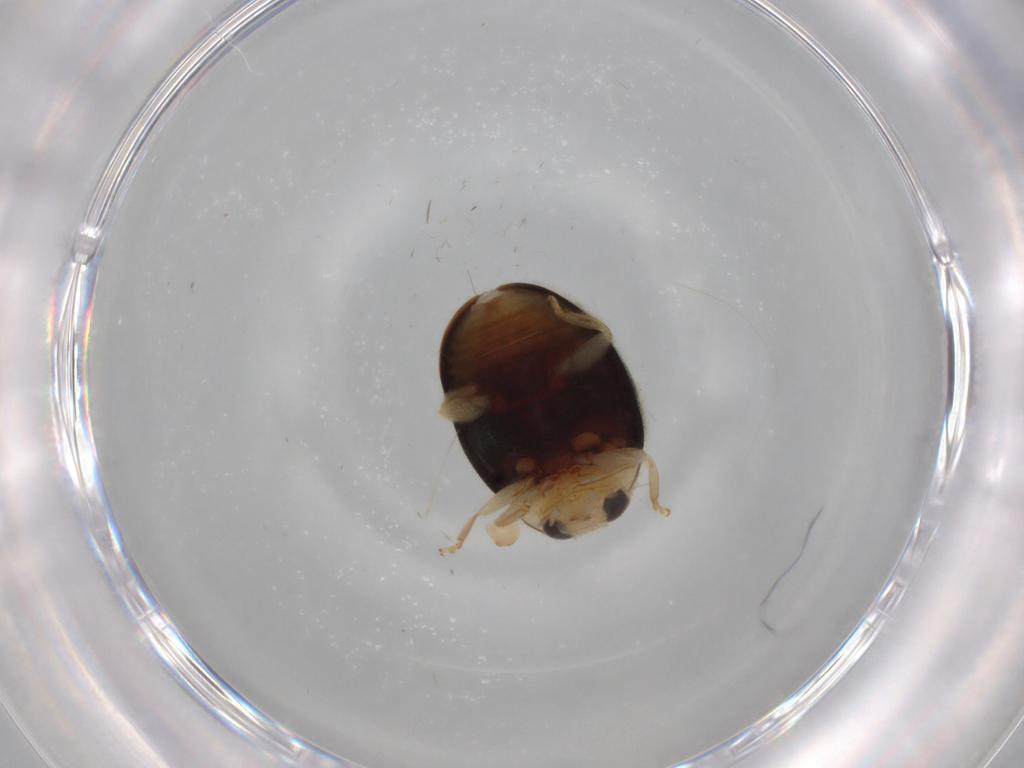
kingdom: Animalia
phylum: Arthropoda
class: Insecta
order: Coleoptera
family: Coccinellidae
